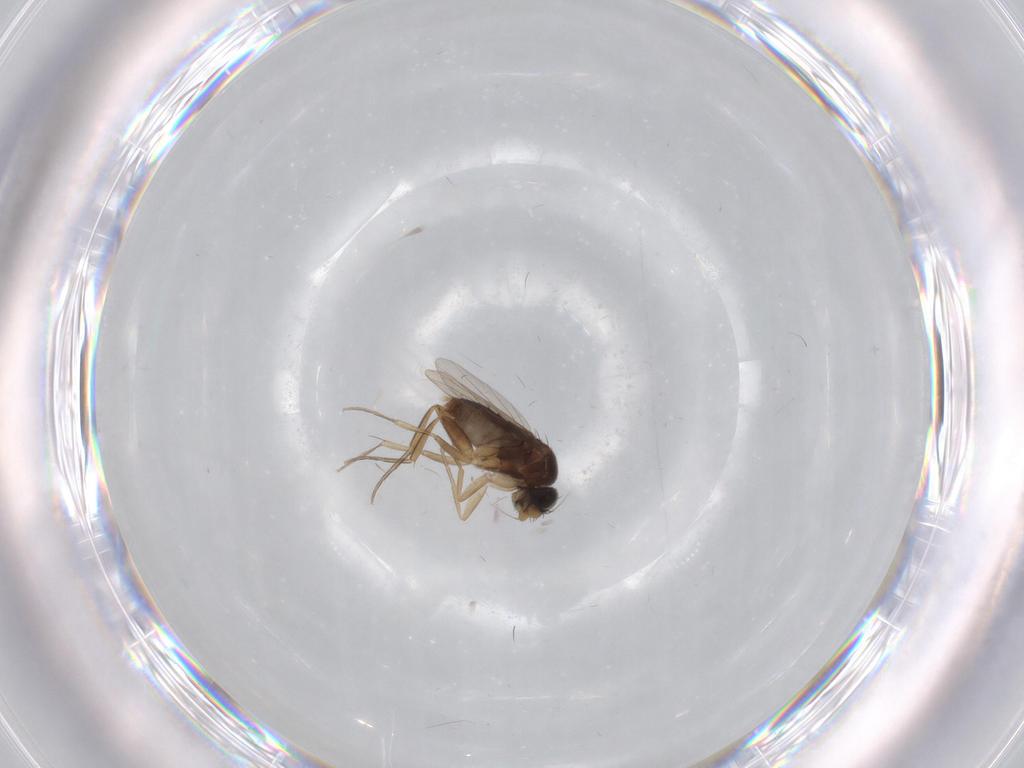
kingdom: Animalia
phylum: Arthropoda
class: Insecta
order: Diptera
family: Phoridae
